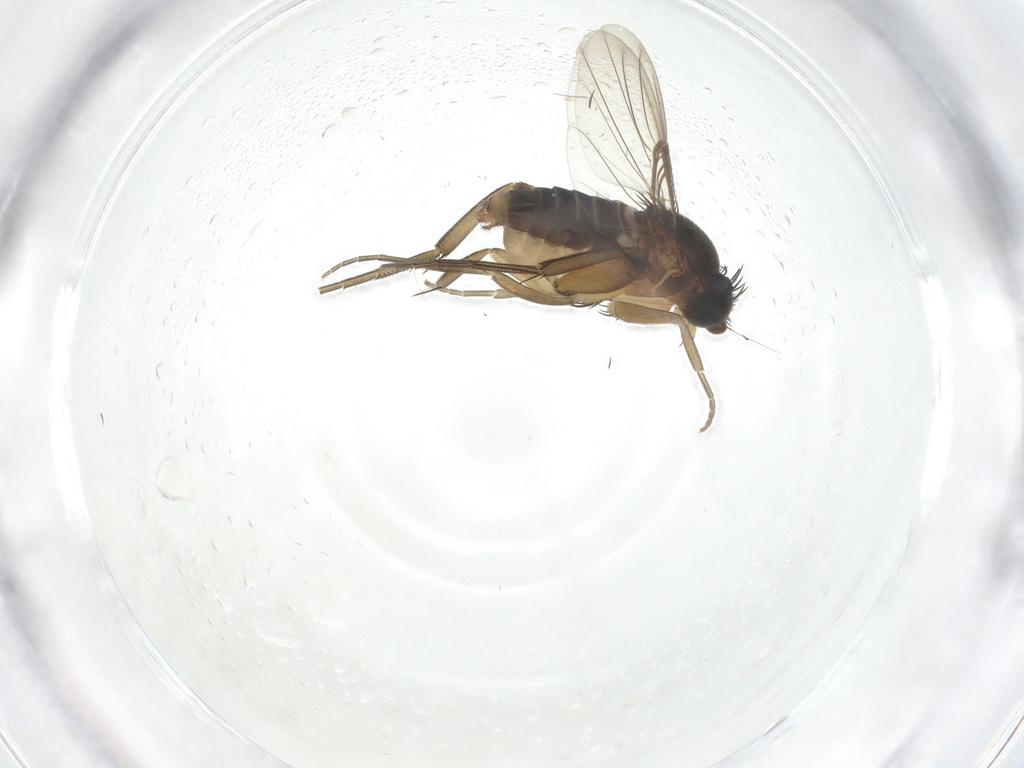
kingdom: Animalia
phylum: Arthropoda
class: Insecta
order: Diptera
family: Phoridae
